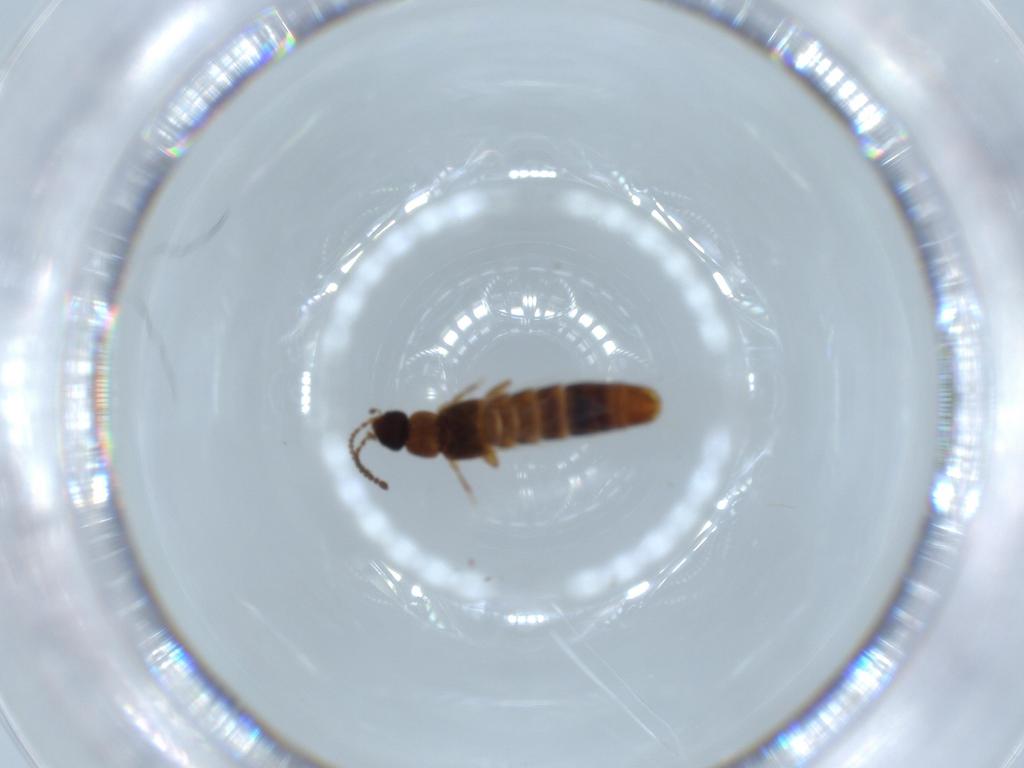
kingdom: Animalia
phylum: Arthropoda
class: Insecta
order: Coleoptera
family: Staphylinidae
